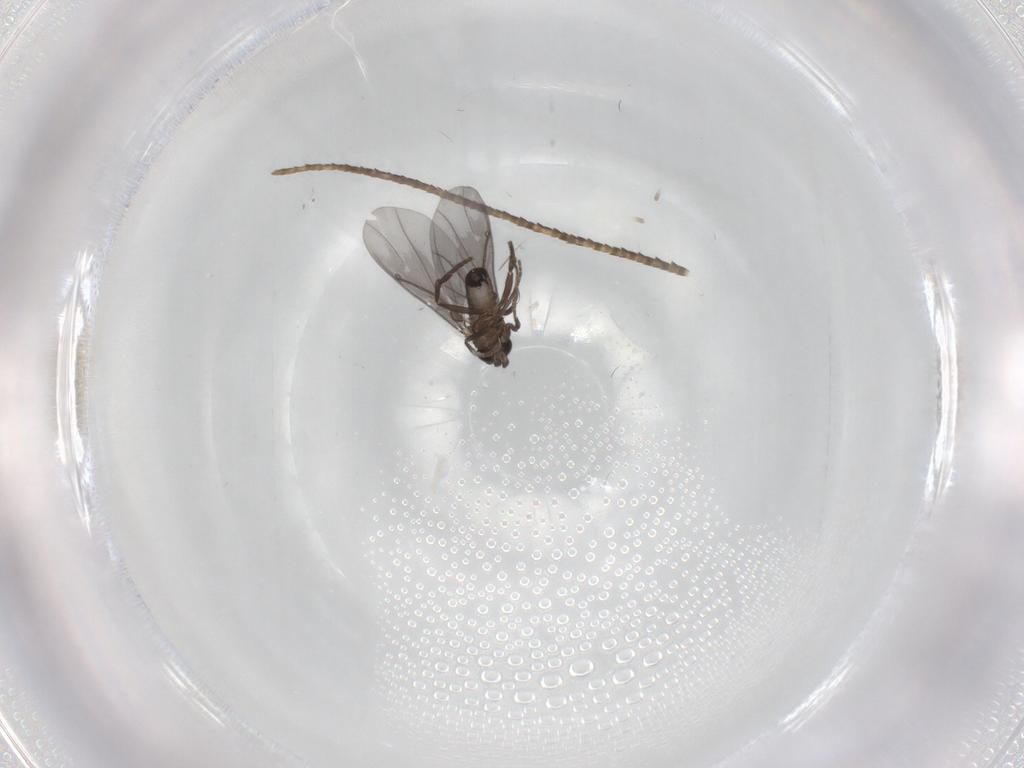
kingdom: Animalia
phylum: Arthropoda
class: Insecta
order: Diptera
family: Phoridae
